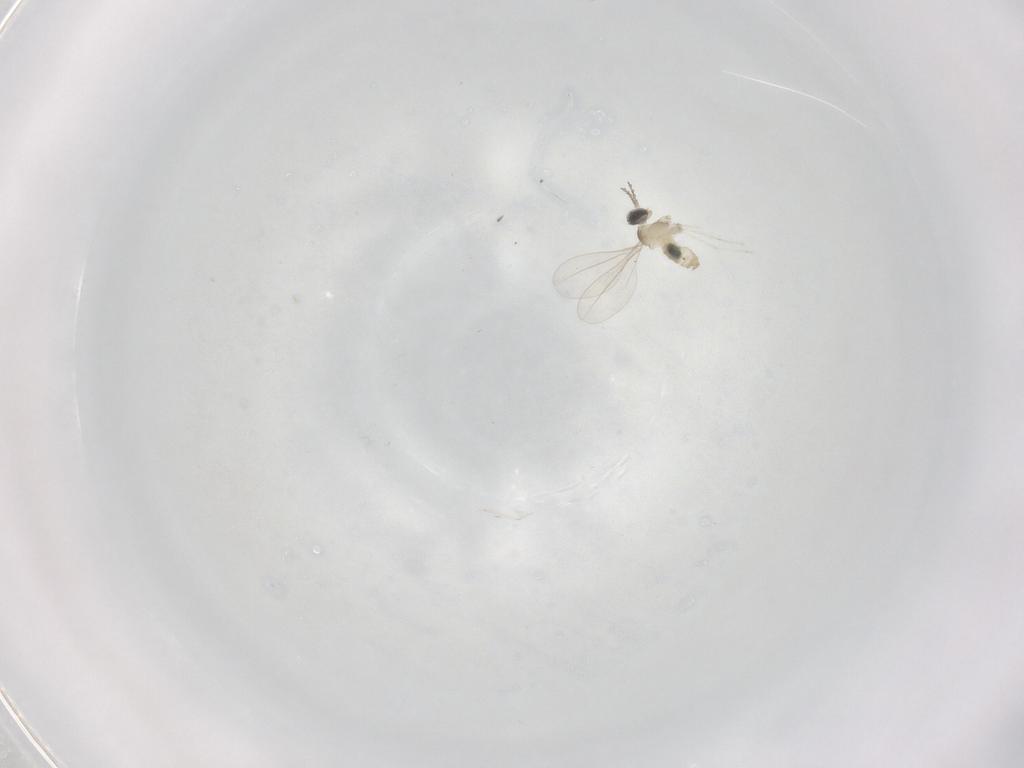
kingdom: Animalia
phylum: Arthropoda
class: Insecta
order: Diptera
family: Cecidomyiidae
